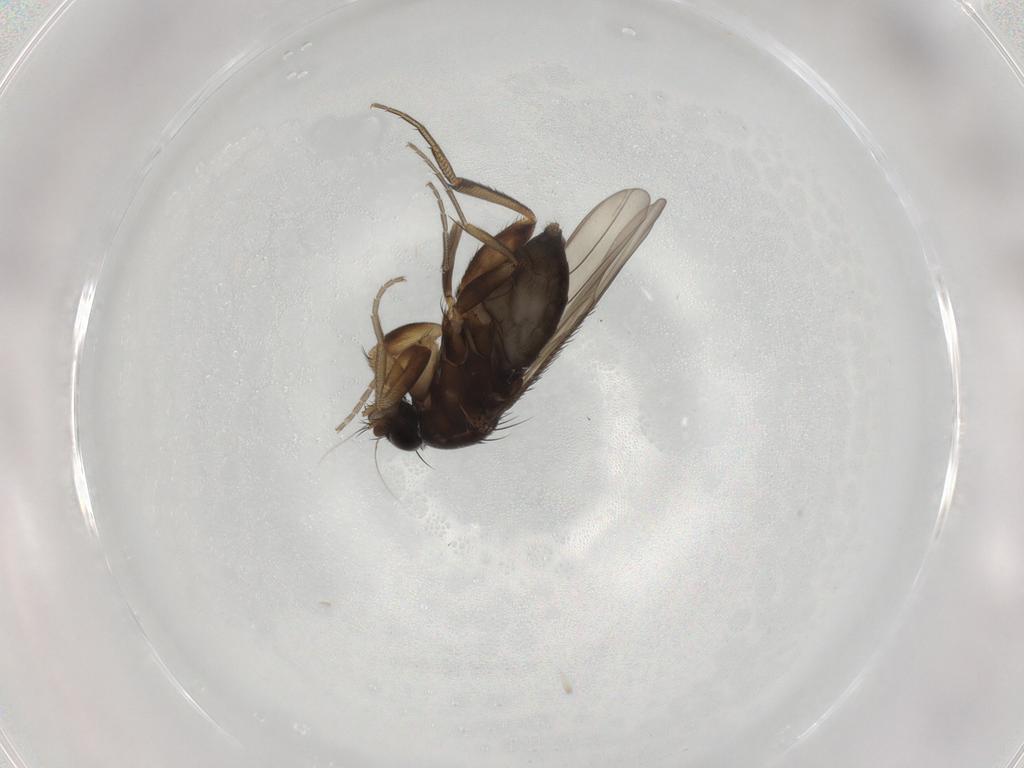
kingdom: Animalia
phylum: Arthropoda
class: Insecta
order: Diptera
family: Phoridae
